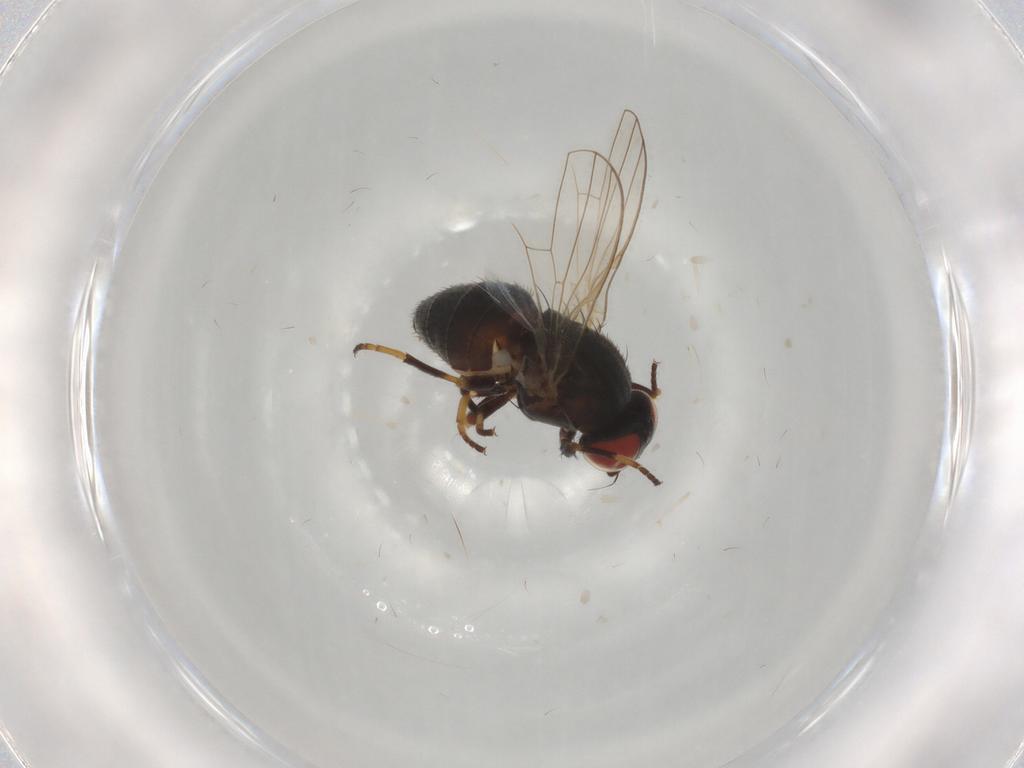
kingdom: Animalia
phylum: Arthropoda
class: Insecta
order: Diptera
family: Chamaemyiidae
